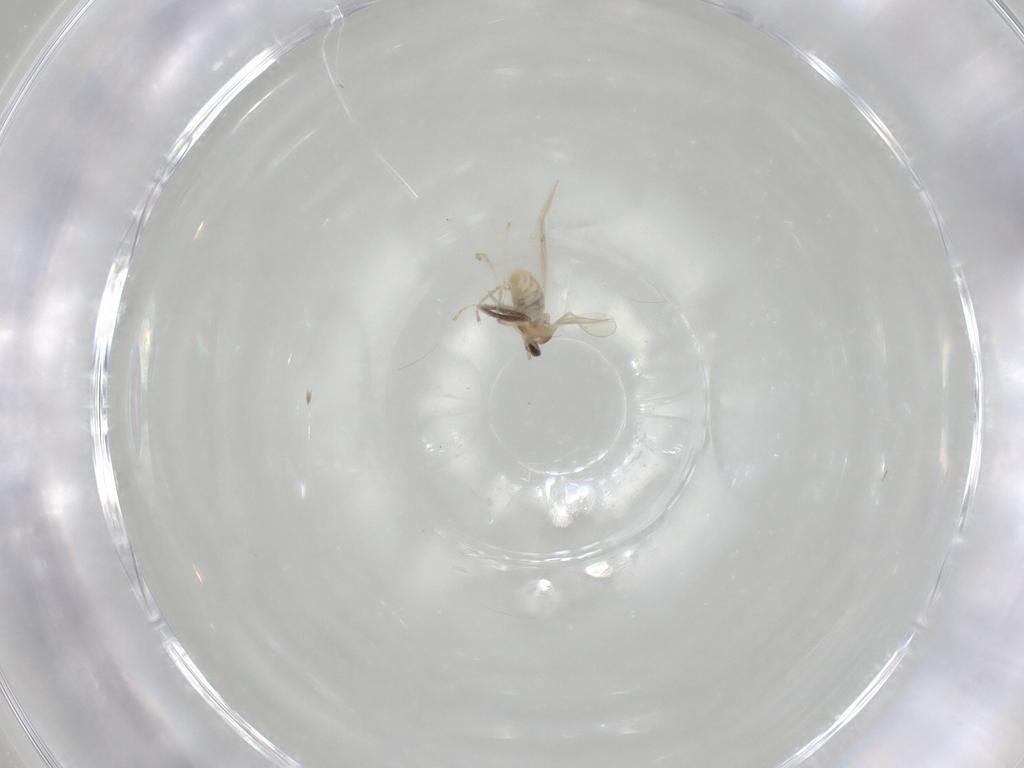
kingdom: Animalia
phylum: Arthropoda
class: Insecta
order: Diptera
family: Cecidomyiidae
